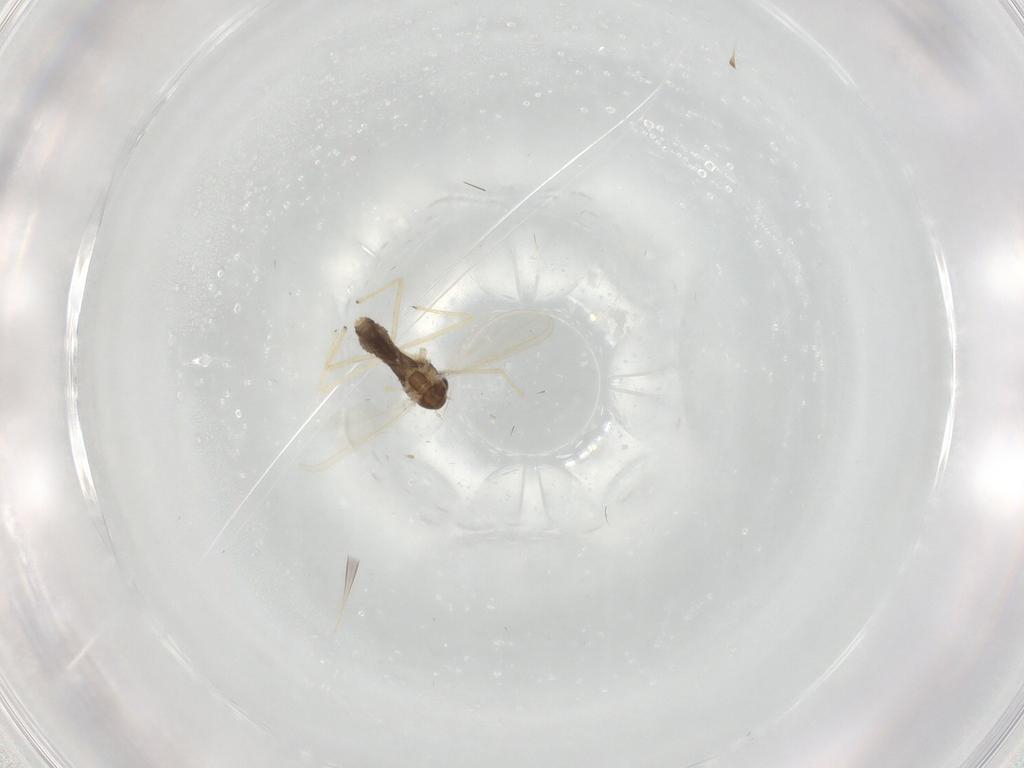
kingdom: Animalia
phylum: Arthropoda
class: Insecta
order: Diptera
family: Chironomidae
